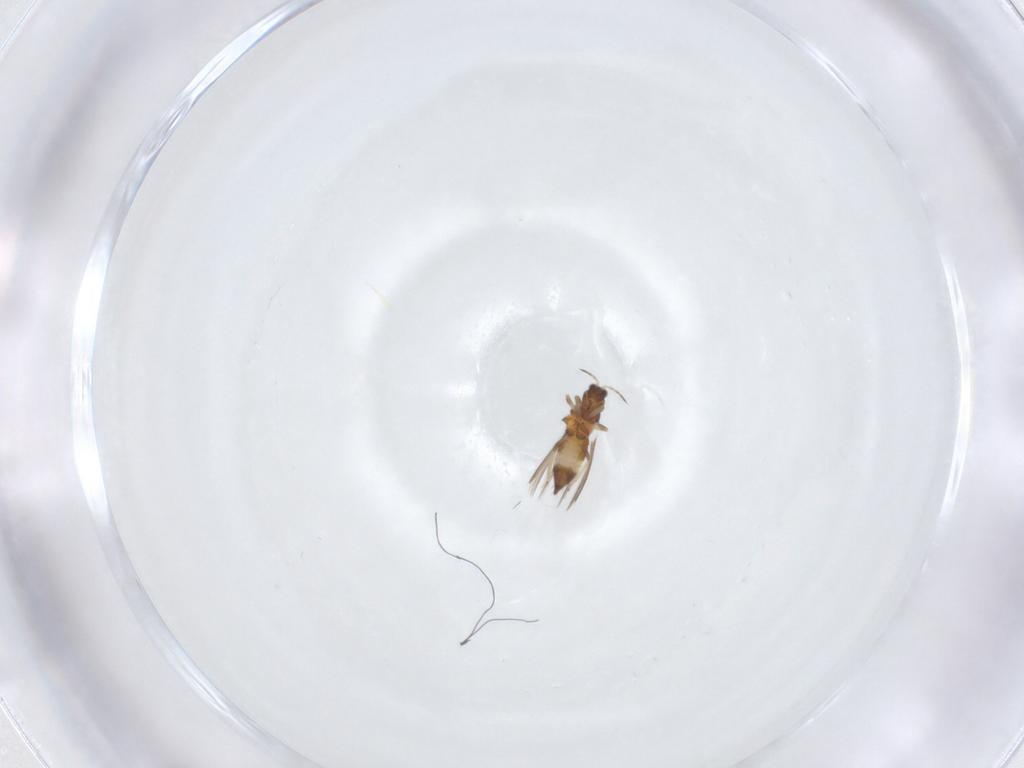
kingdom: Animalia
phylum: Arthropoda
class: Insecta
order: Thysanoptera
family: Thripidae
